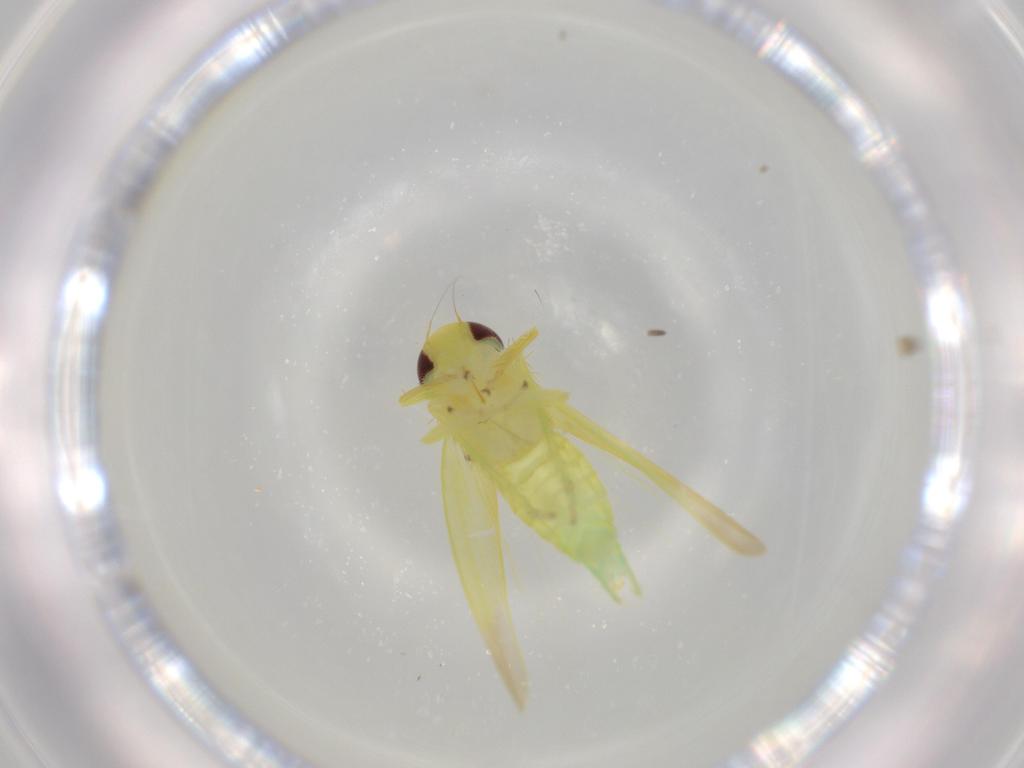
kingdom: Animalia
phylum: Arthropoda
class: Insecta
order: Hemiptera
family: Cicadellidae
